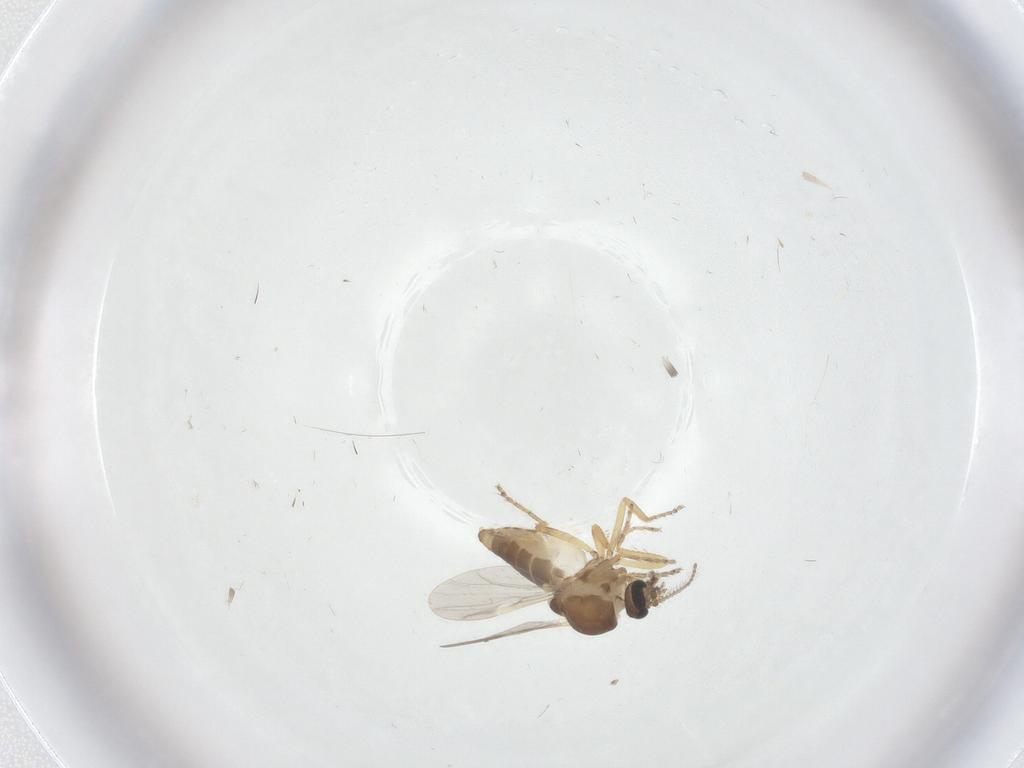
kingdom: Animalia
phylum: Arthropoda
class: Insecta
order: Diptera
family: Ceratopogonidae
